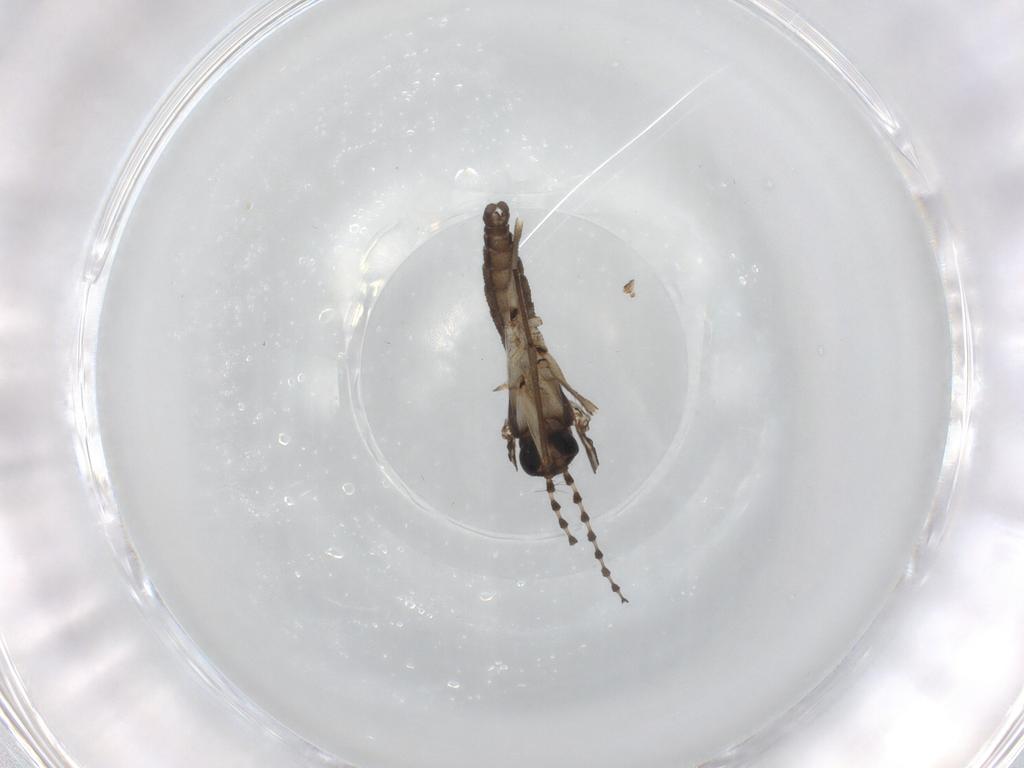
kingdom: Animalia
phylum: Arthropoda
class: Insecta
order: Diptera
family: Sciaridae
